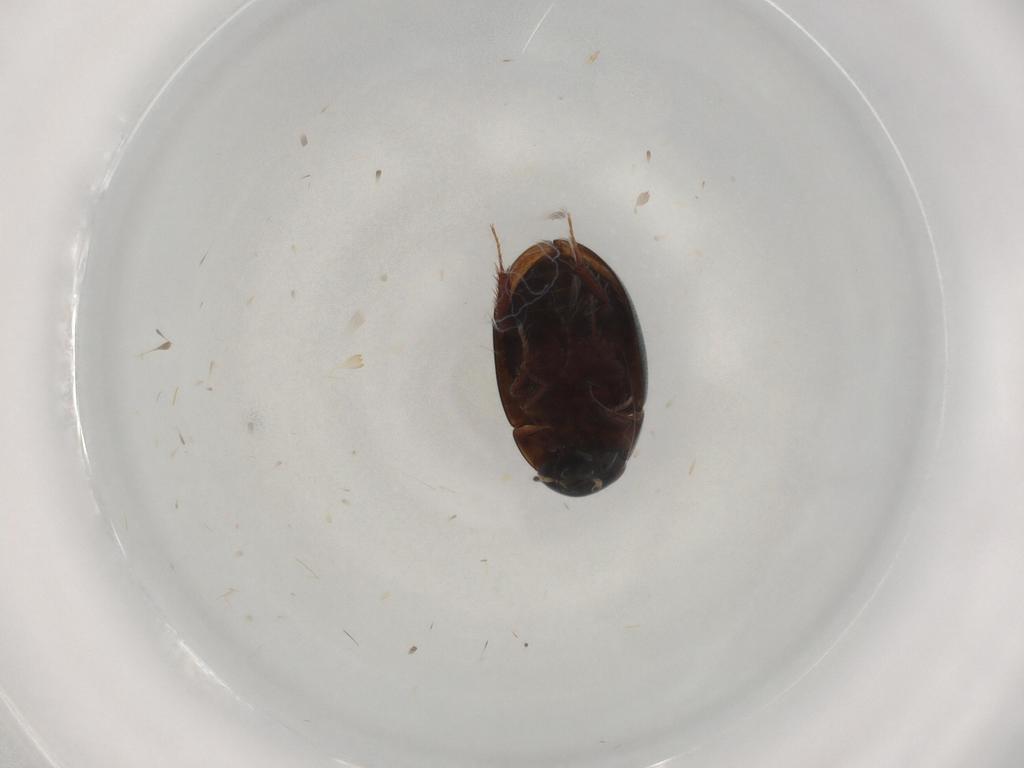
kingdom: Animalia
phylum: Arthropoda
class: Insecta
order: Coleoptera
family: Hydrophilidae
